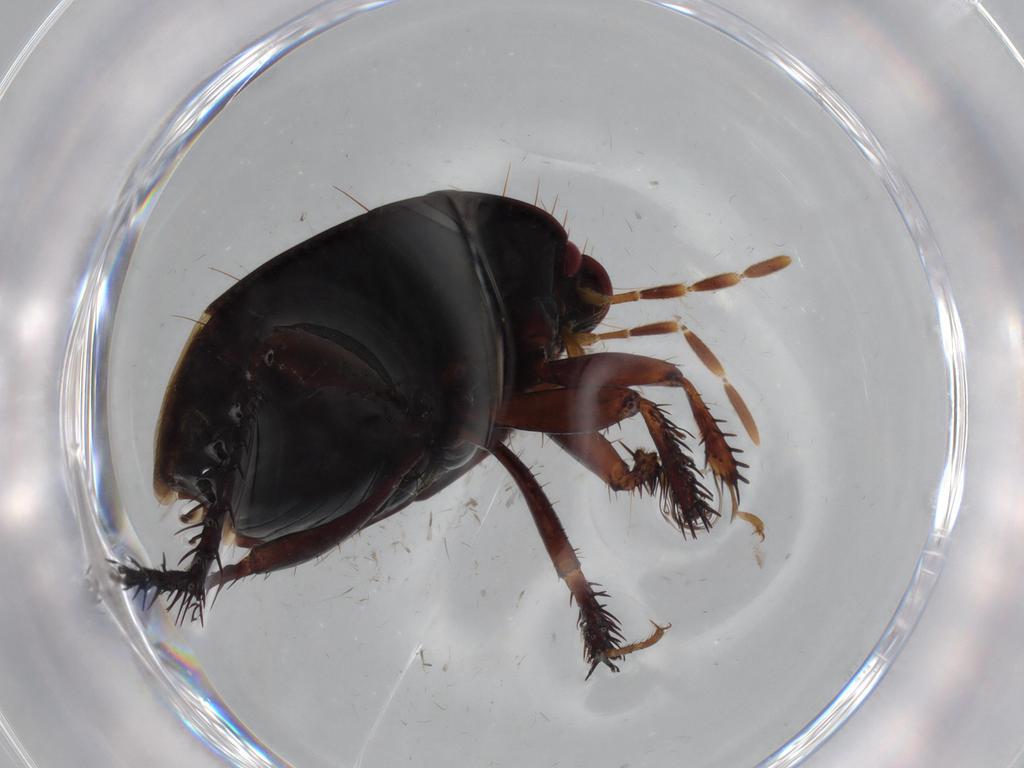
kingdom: Animalia
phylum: Arthropoda
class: Insecta
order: Hemiptera
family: Cydnidae
